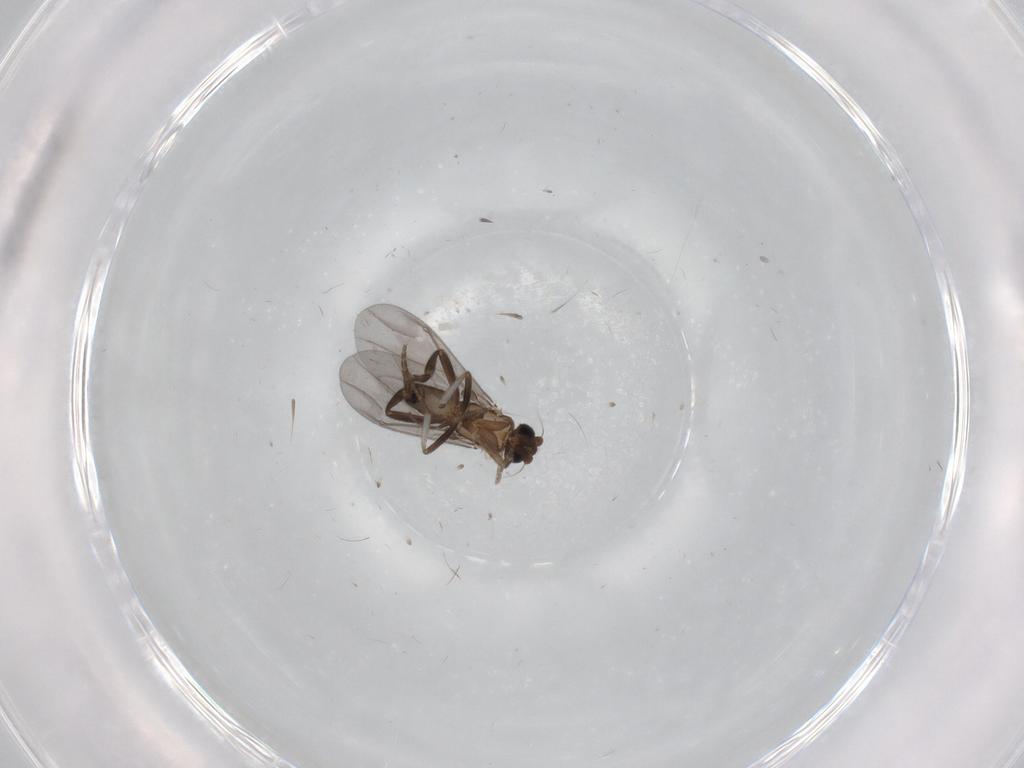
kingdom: Animalia
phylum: Arthropoda
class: Insecta
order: Diptera
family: Phoridae
